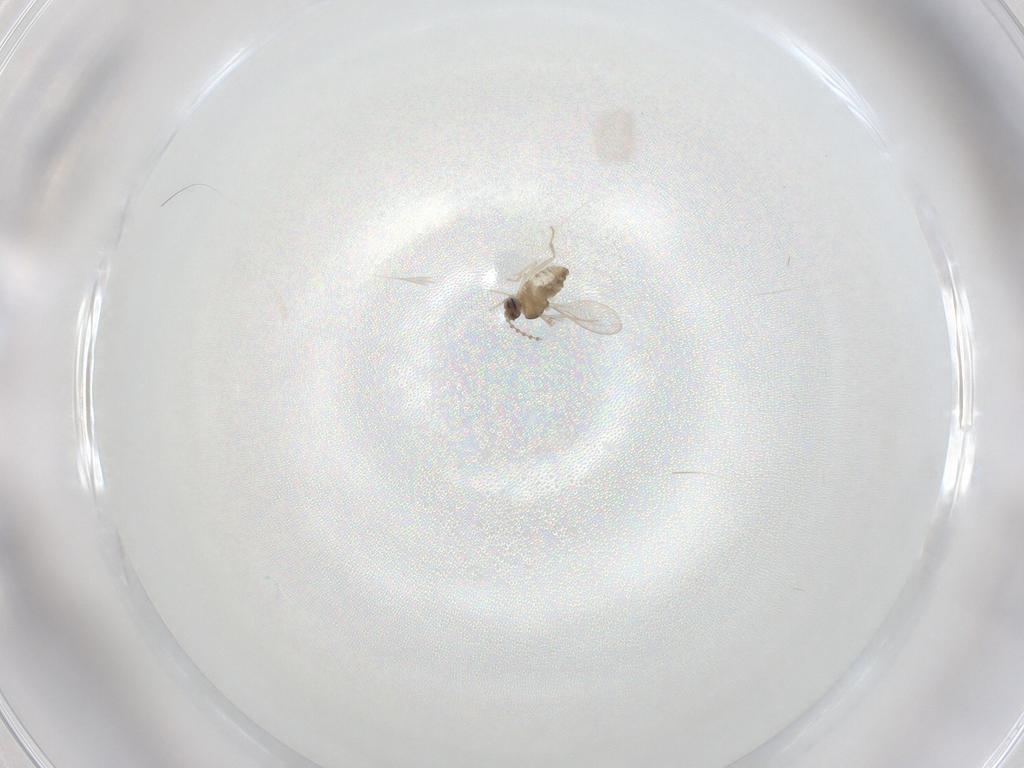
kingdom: Animalia
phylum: Arthropoda
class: Insecta
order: Diptera
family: Cecidomyiidae
